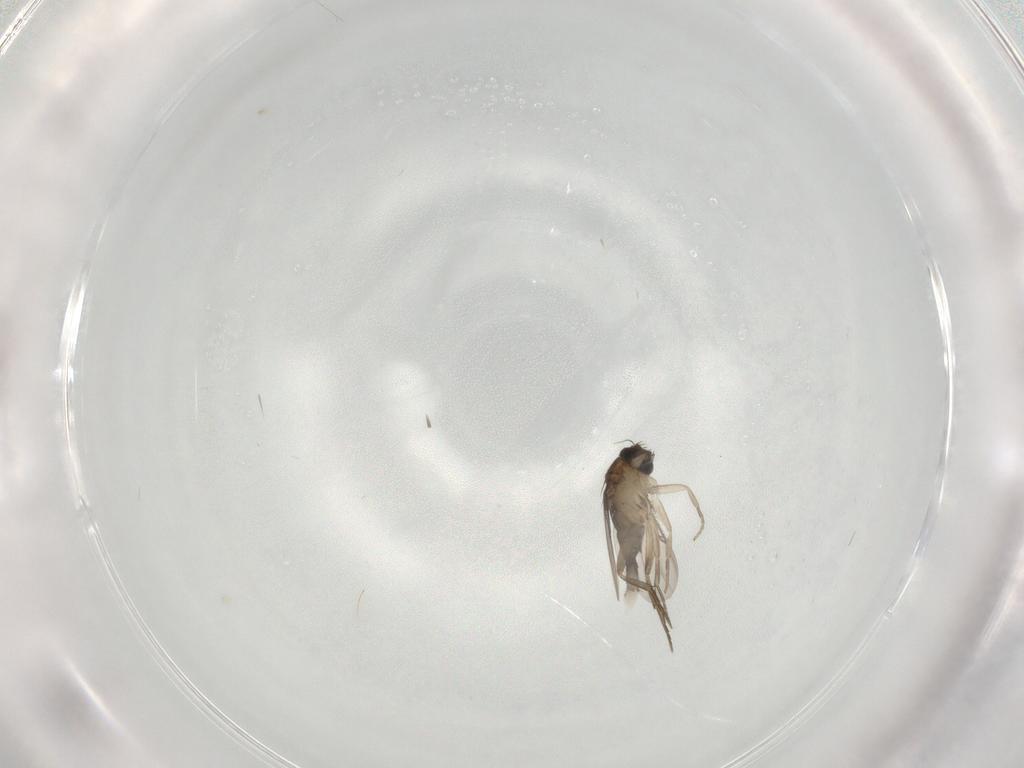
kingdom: Animalia
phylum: Arthropoda
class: Insecta
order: Diptera
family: Phoridae
